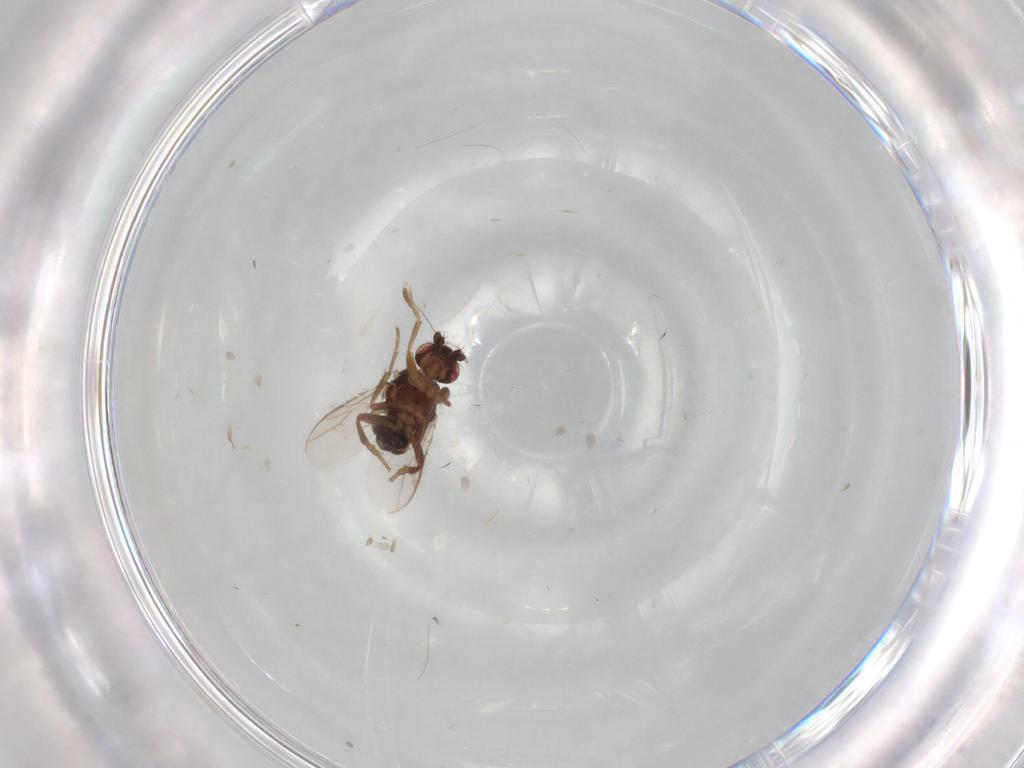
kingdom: Animalia
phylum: Arthropoda
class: Insecta
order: Diptera
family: Sphaeroceridae
